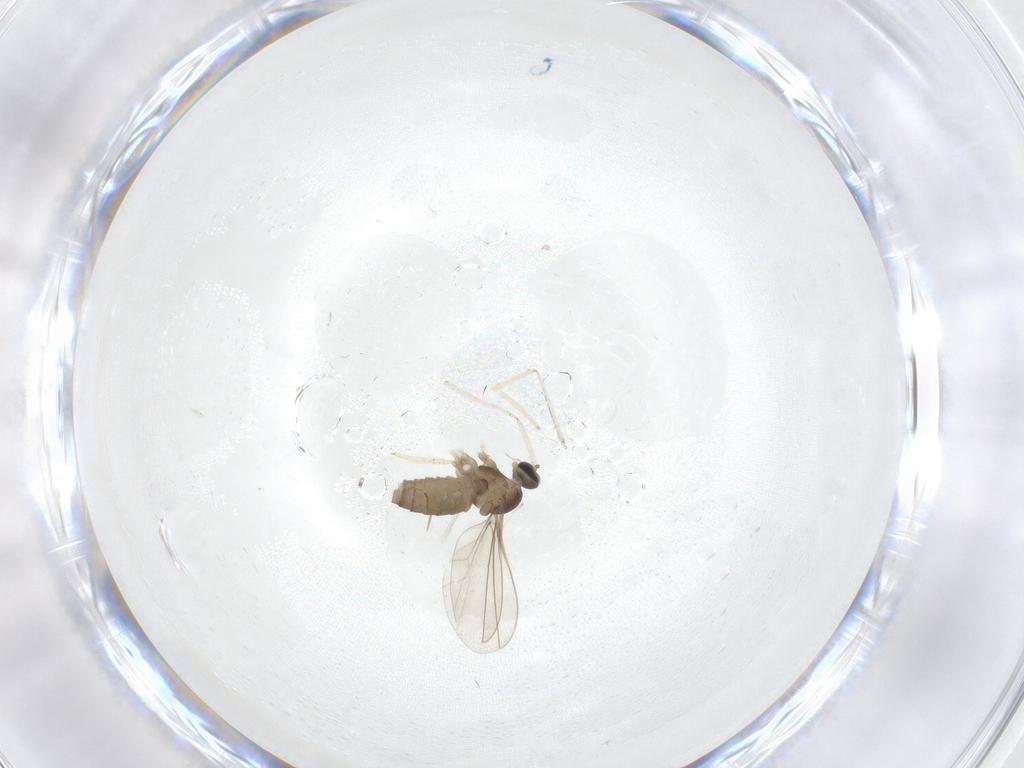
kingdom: Animalia
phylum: Arthropoda
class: Insecta
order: Diptera
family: Cecidomyiidae
